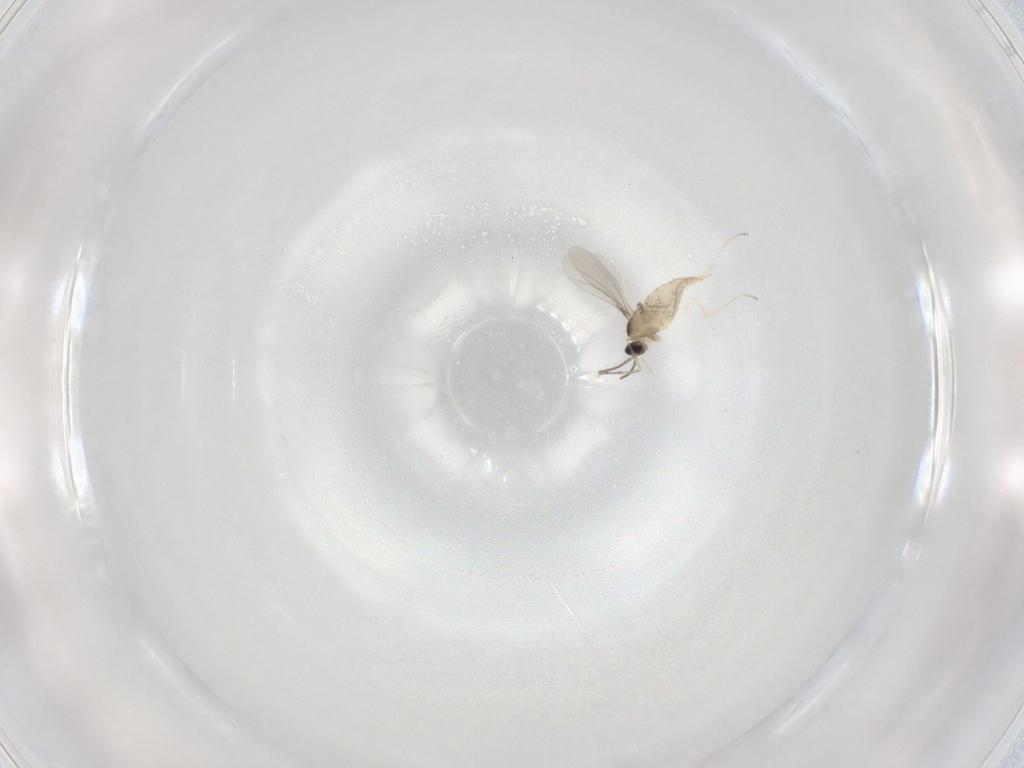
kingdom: Animalia
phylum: Arthropoda
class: Insecta
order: Diptera
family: Cecidomyiidae
